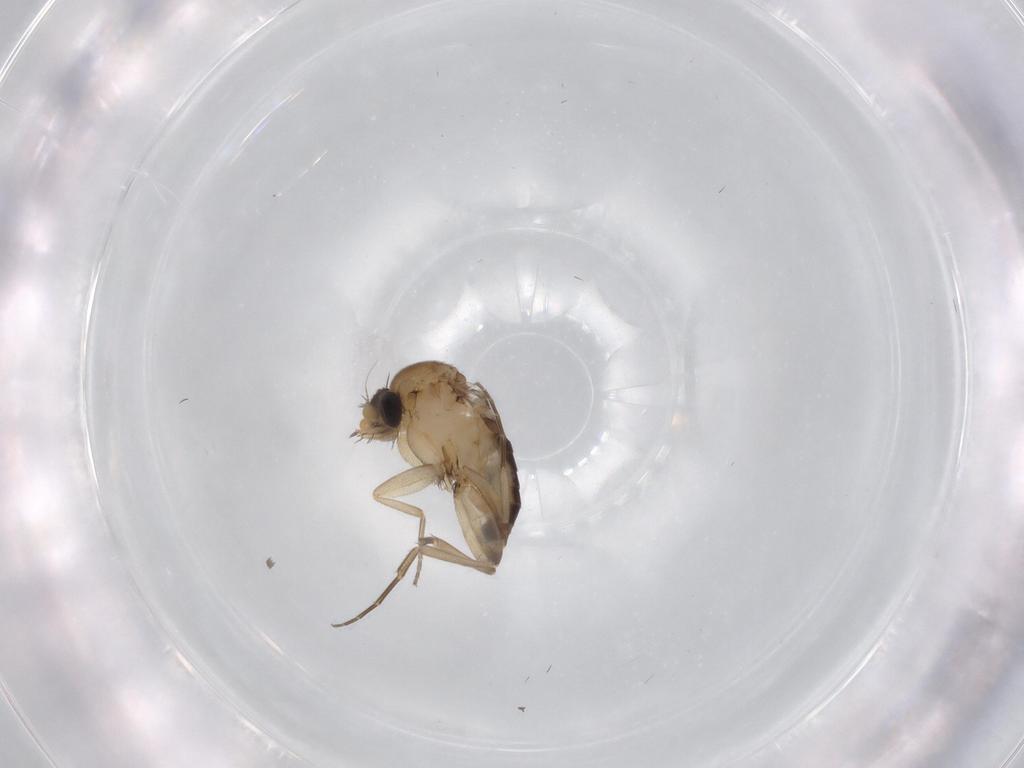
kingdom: Animalia
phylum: Arthropoda
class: Insecta
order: Diptera
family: Phoridae
